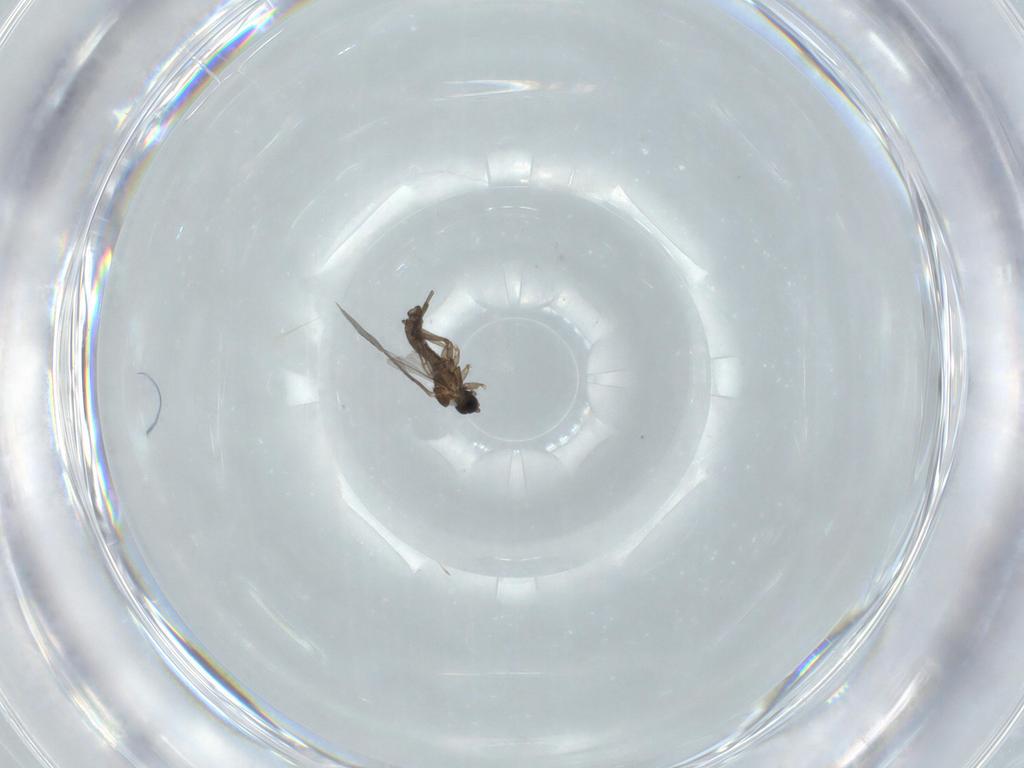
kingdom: Animalia
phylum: Arthropoda
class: Insecta
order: Diptera
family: Sciaridae
